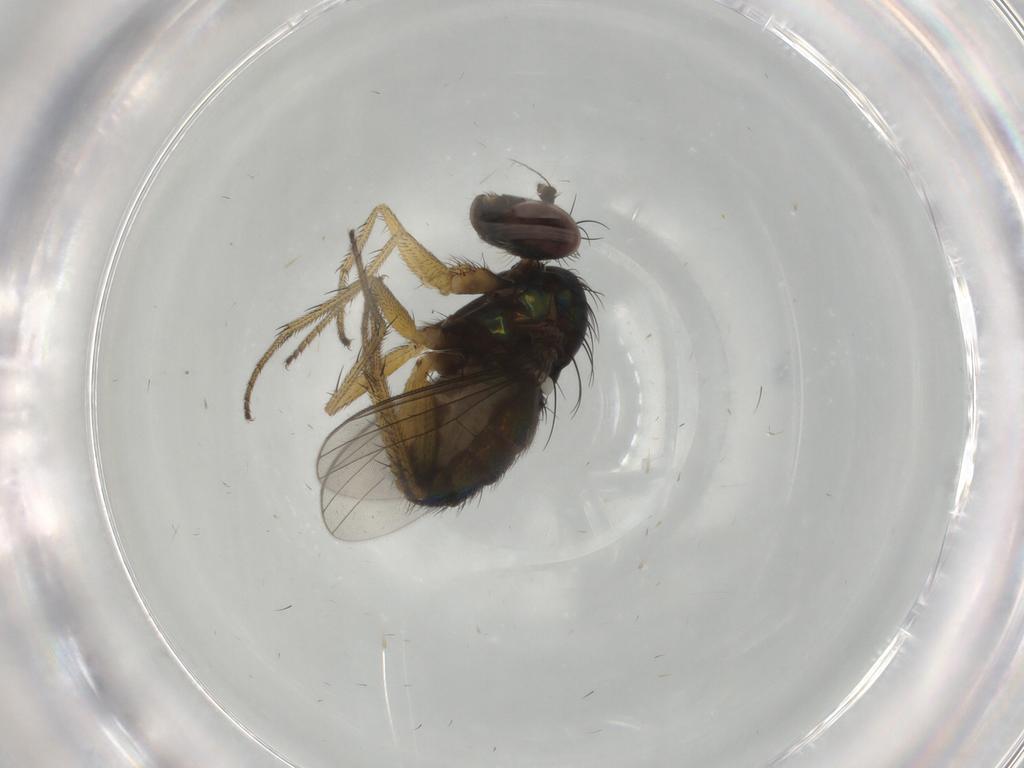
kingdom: Animalia
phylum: Arthropoda
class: Insecta
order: Diptera
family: Dolichopodidae
